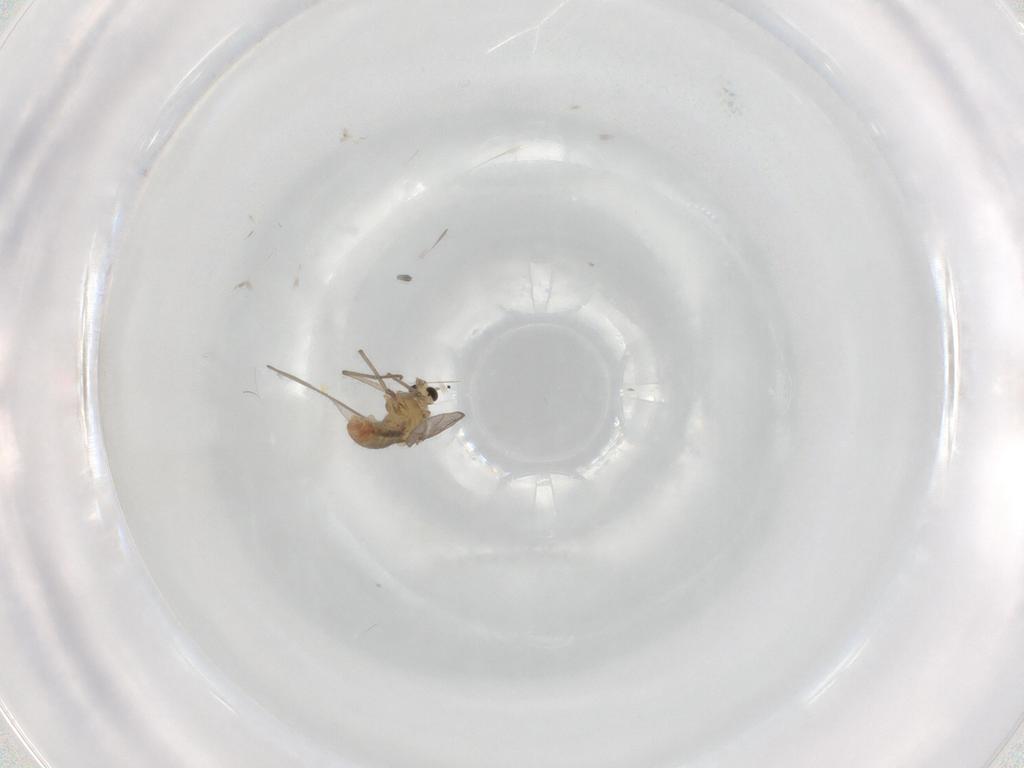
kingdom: Animalia
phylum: Arthropoda
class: Insecta
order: Diptera
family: Chironomidae
